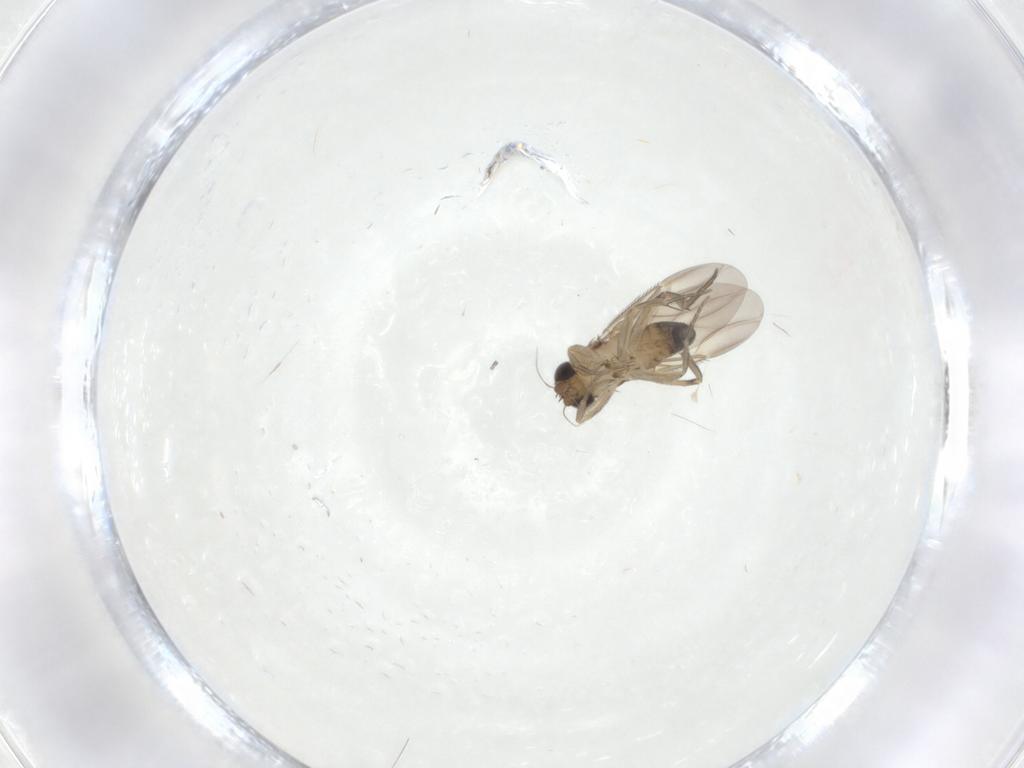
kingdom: Animalia
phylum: Arthropoda
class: Insecta
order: Diptera
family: Phoridae
